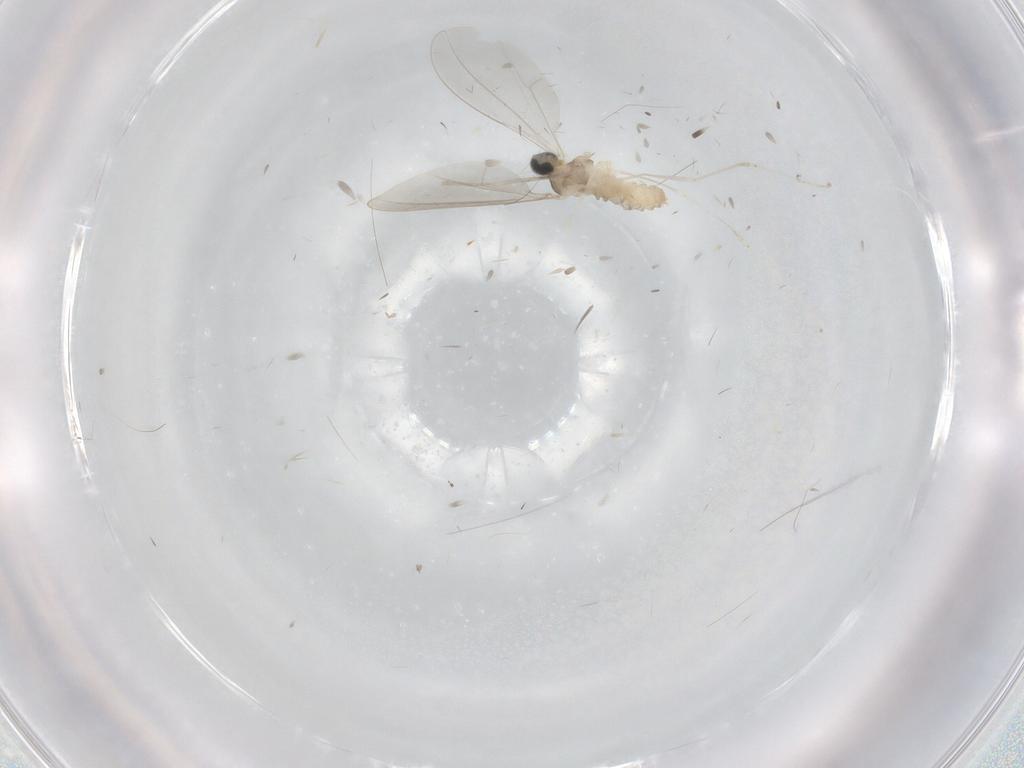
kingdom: Animalia
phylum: Arthropoda
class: Insecta
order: Diptera
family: Cecidomyiidae
